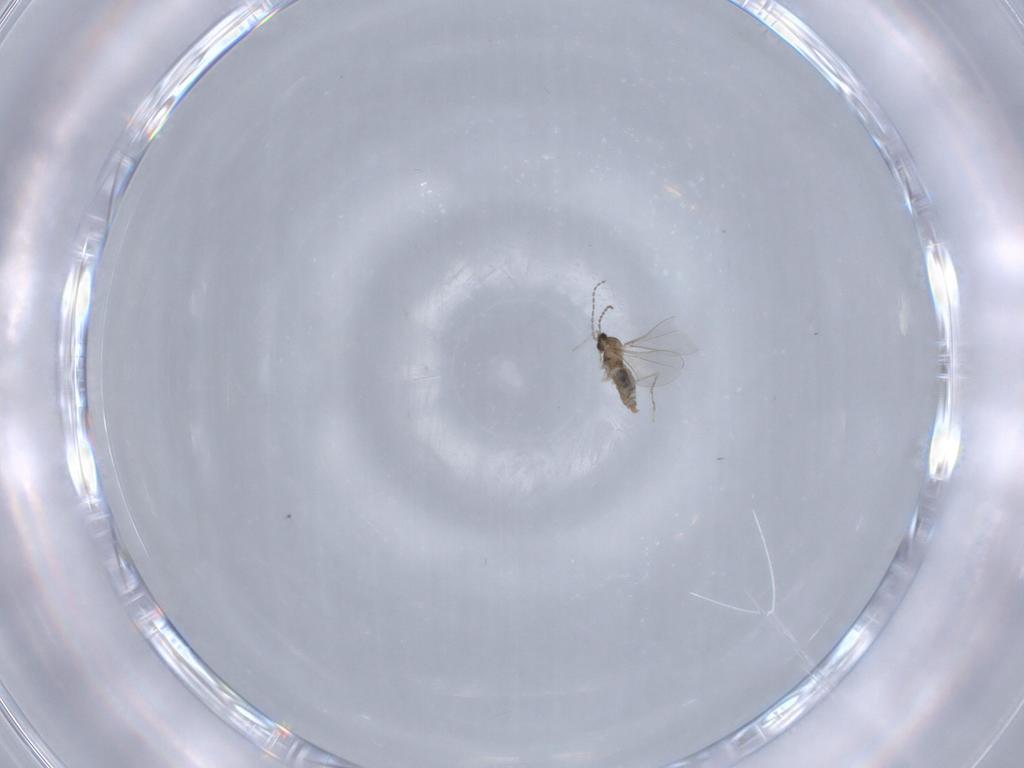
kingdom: Animalia
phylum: Arthropoda
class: Insecta
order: Diptera
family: Cecidomyiidae
